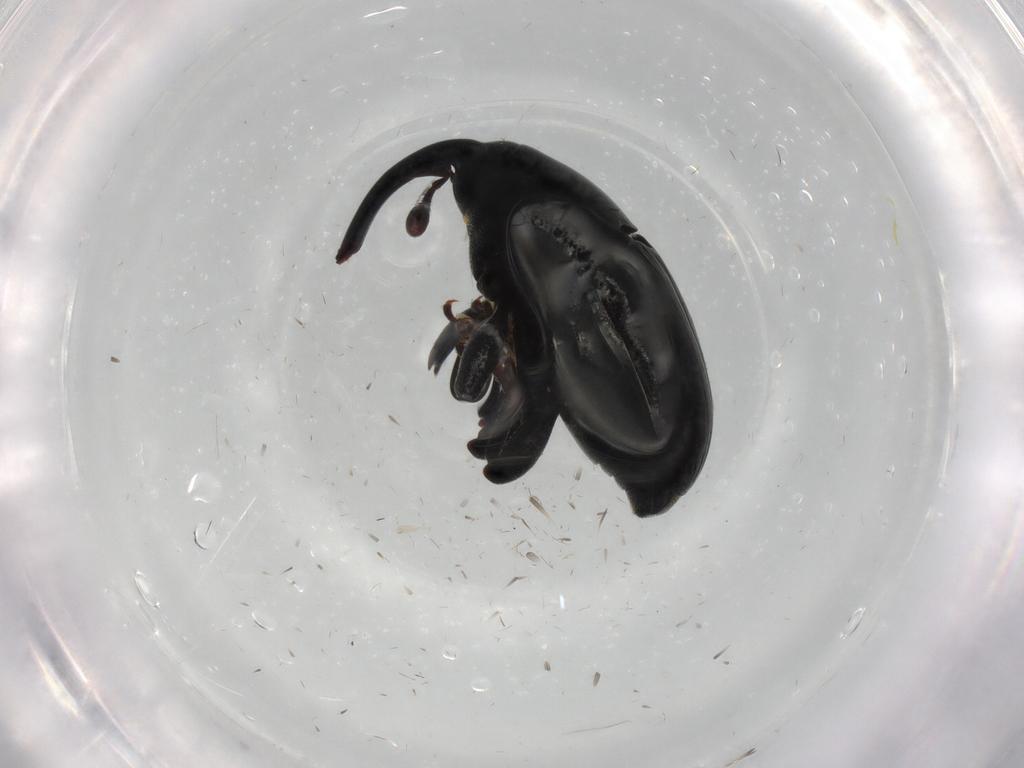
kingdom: Animalia
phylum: Arthropoda
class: Insecta
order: Coleoptera
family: Curculionidae
